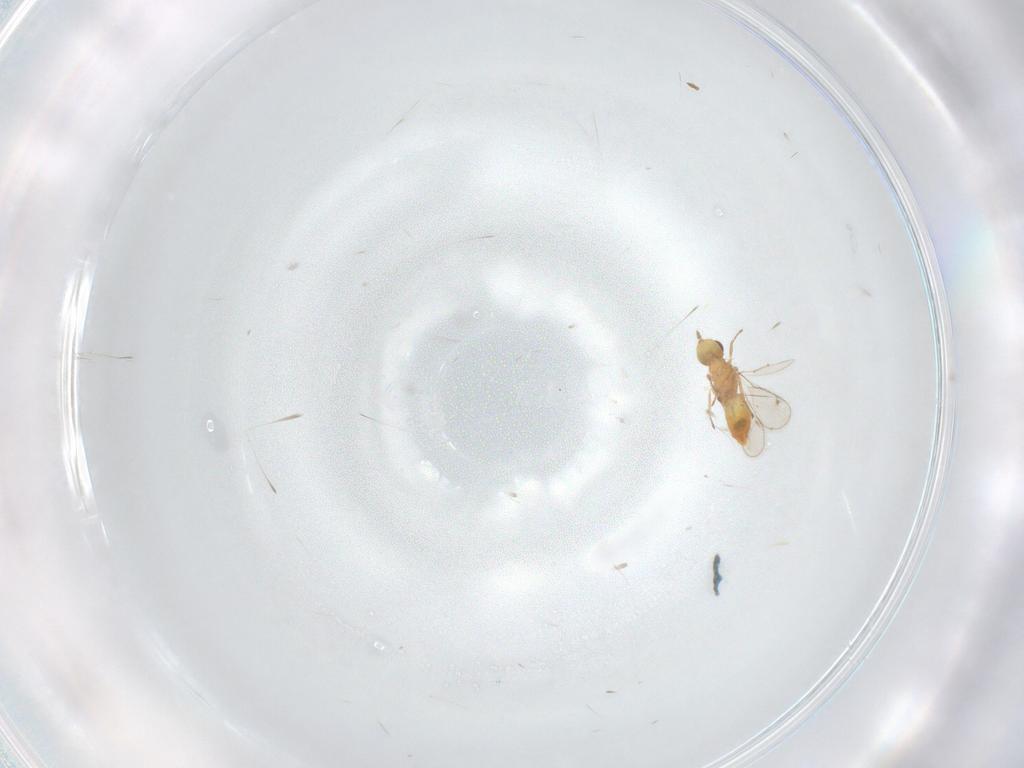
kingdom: Animalia
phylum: Arthropoda
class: Insecta
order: Hymenoptera
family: Eulophidae
